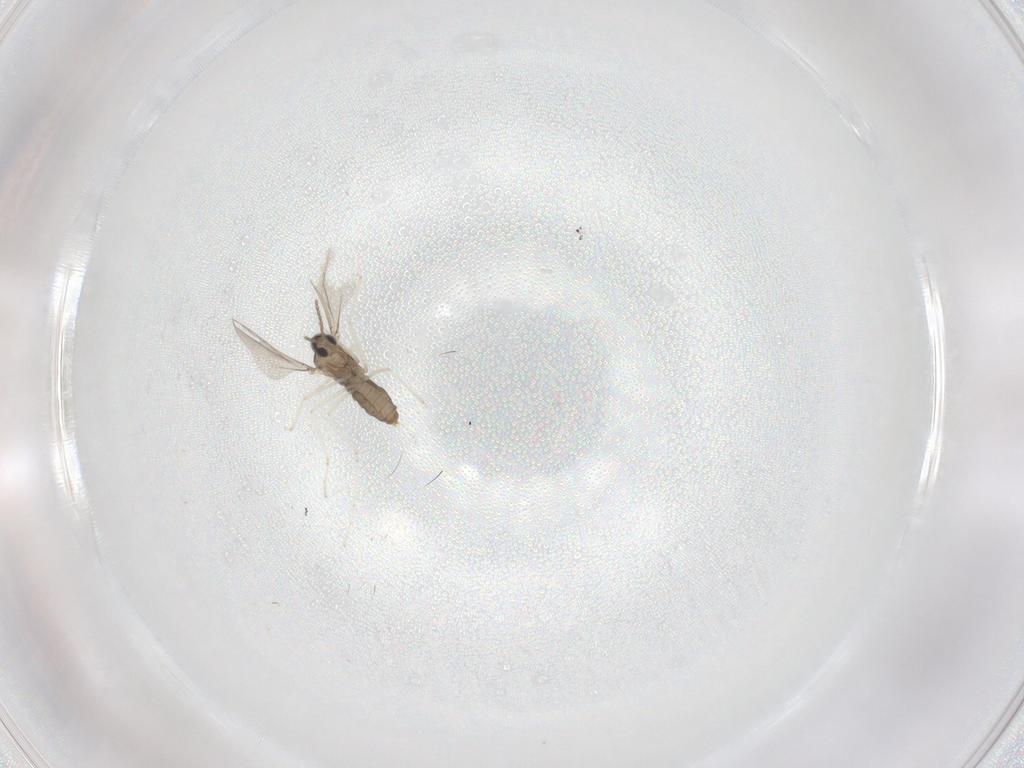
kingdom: Animalia
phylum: Arthropoda
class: Insecta
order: Diptera
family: Cecidomyiidae
